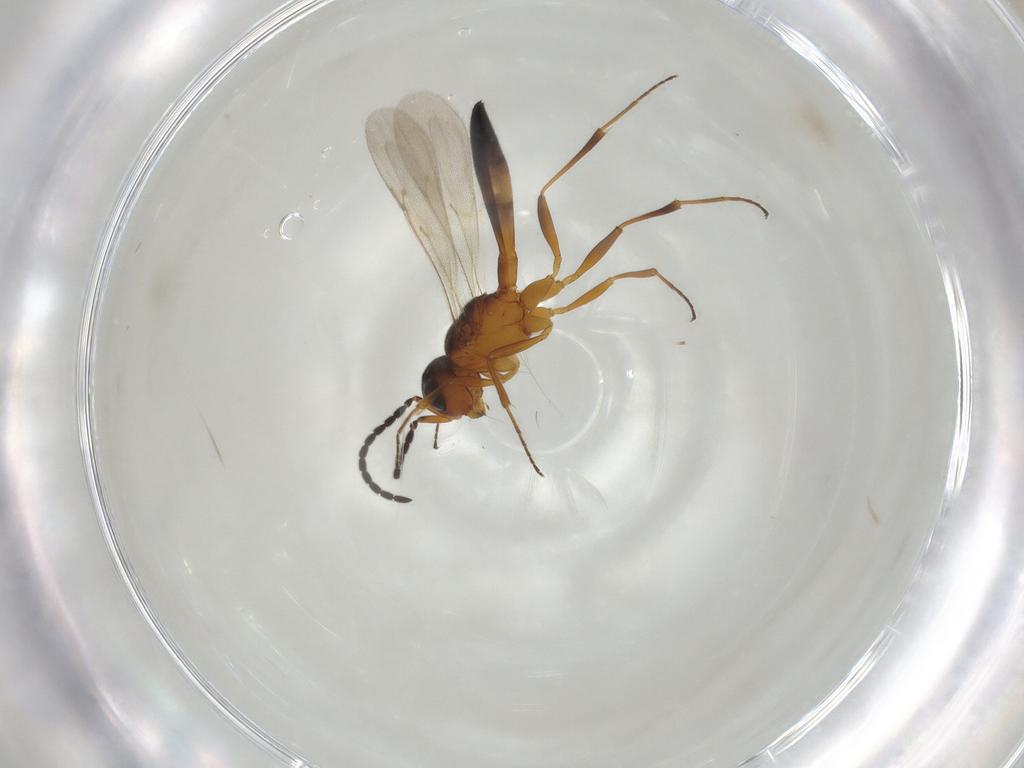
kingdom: Animalia
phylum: Arthropoda
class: Insecta
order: Hymenoptera
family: Scelionidae
